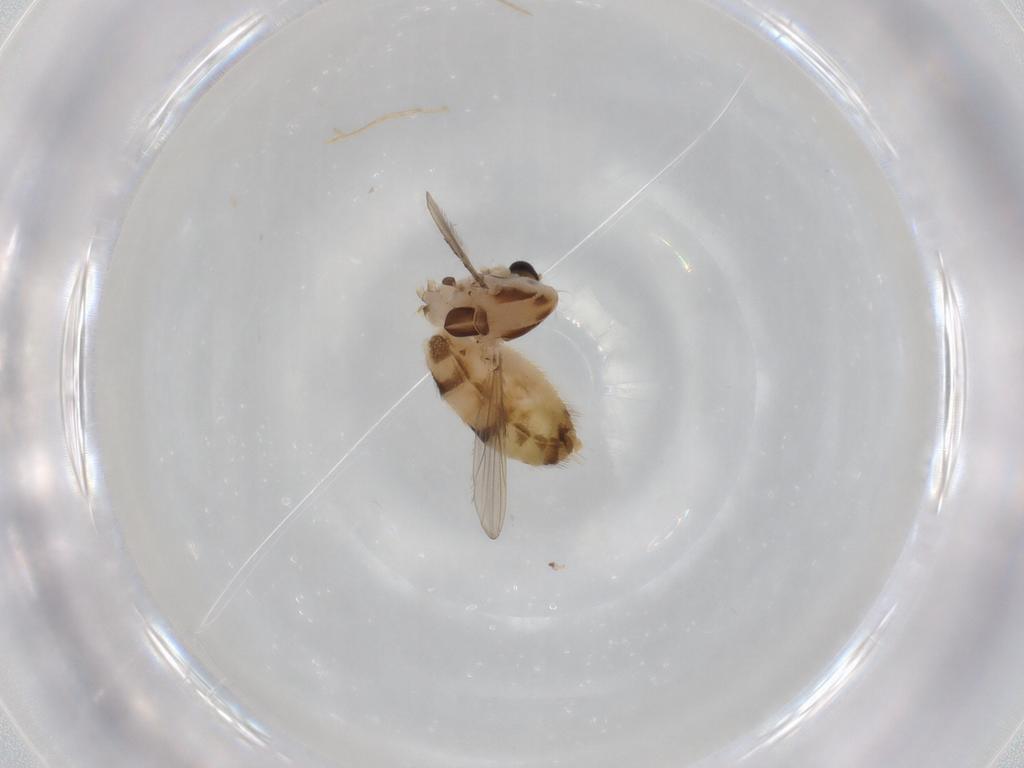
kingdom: Animalia
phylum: Arthropoda
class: Insecta
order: Diptera
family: Chironomidae
